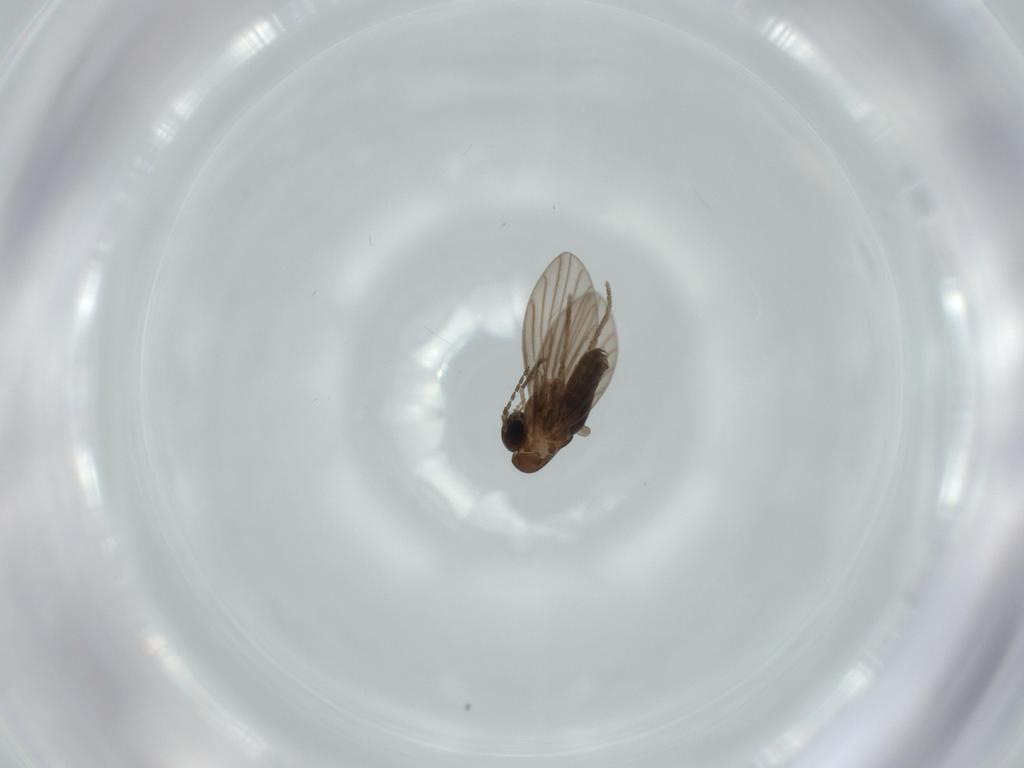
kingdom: Animalia
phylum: Arthropoda
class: Insecta
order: Diptera
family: Psychodidae
